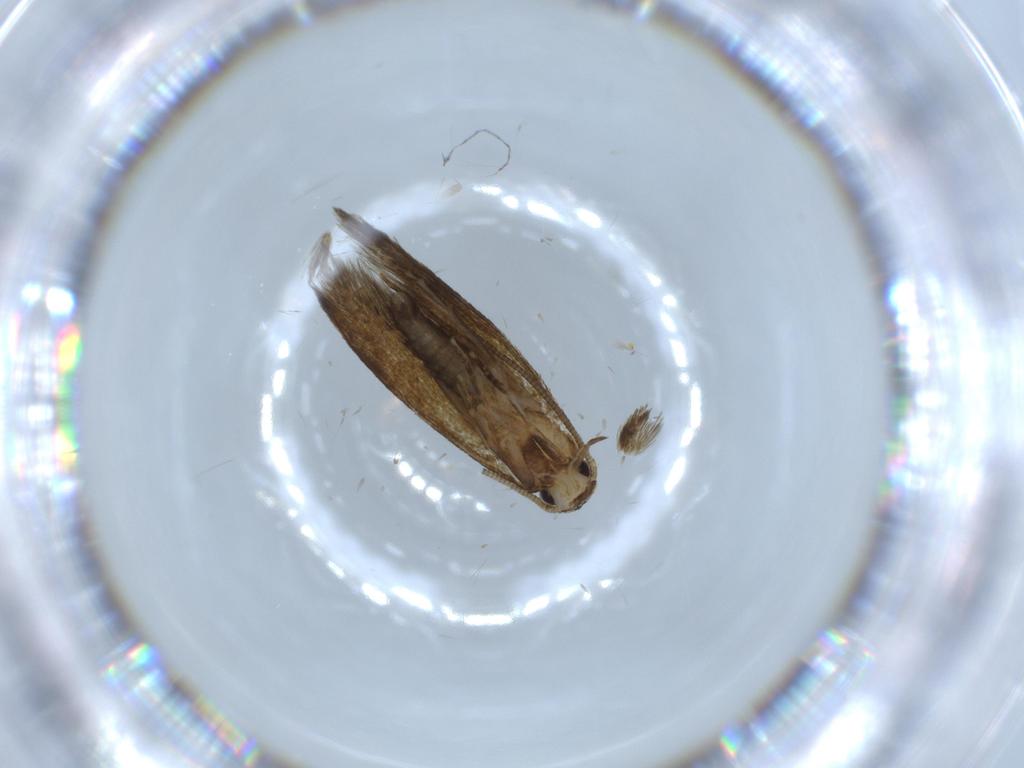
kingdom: Animalia
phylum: Arthropoda
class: Insecta
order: Lepidoptera
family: Tineidae
